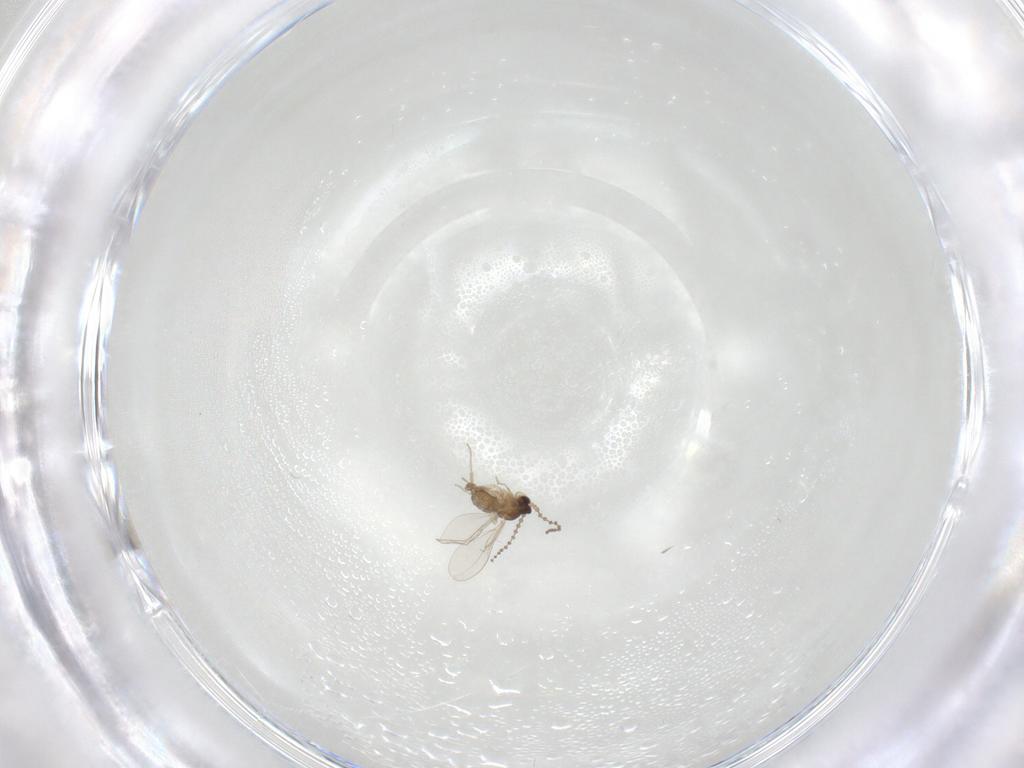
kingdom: Animalia
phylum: Arthropoda
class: Insecta
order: Diptera
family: Cecidomyiidae
